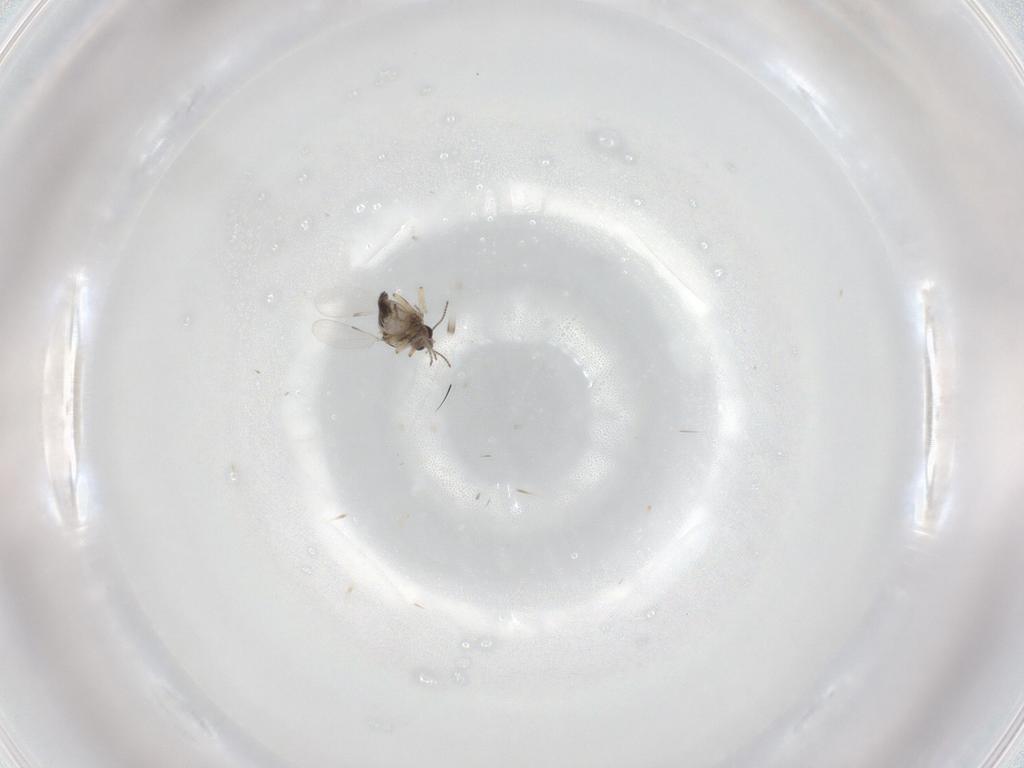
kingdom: Animalia
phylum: Arthropoda
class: Insecta
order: Diptera
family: Ceratopogonidae
